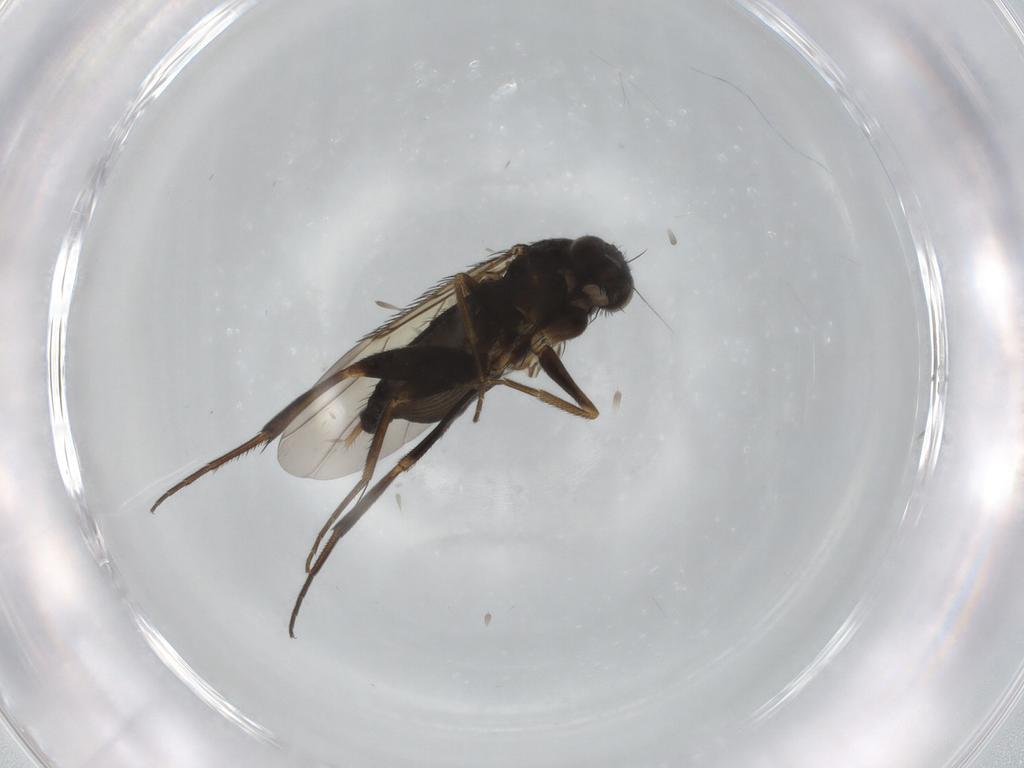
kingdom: Animalia
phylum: Arthropoda
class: Insecta
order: Diptera
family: Phoridae
